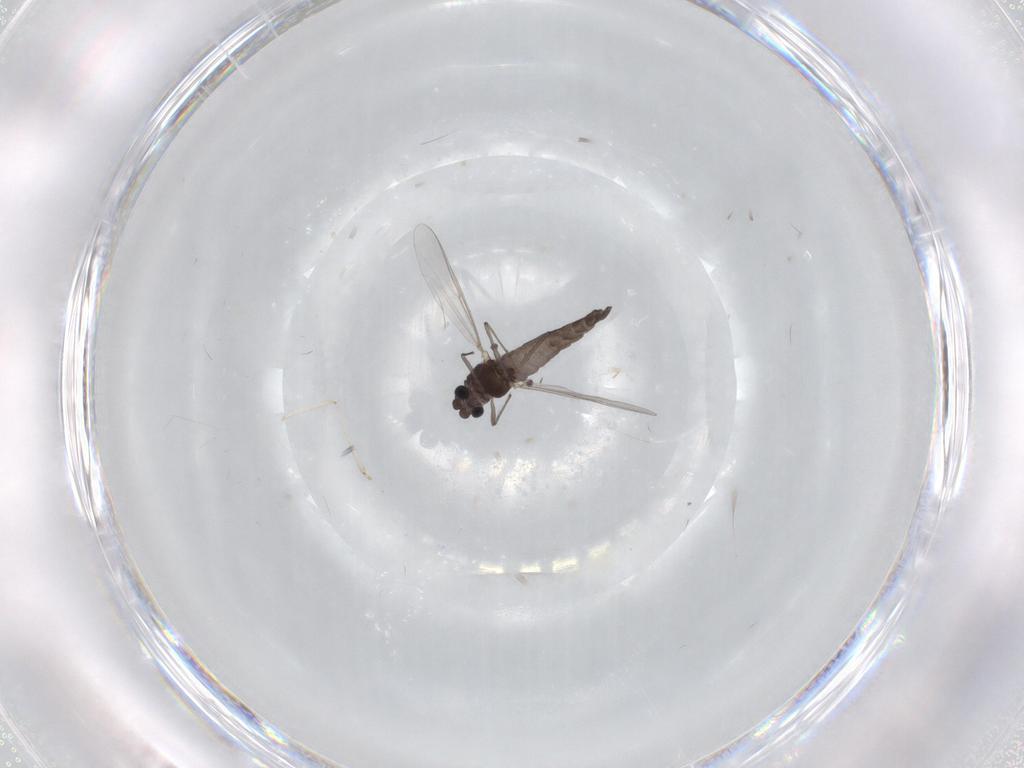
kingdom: Animalia
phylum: Arthropoda
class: Insecta
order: Diptera
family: Chironomidae
